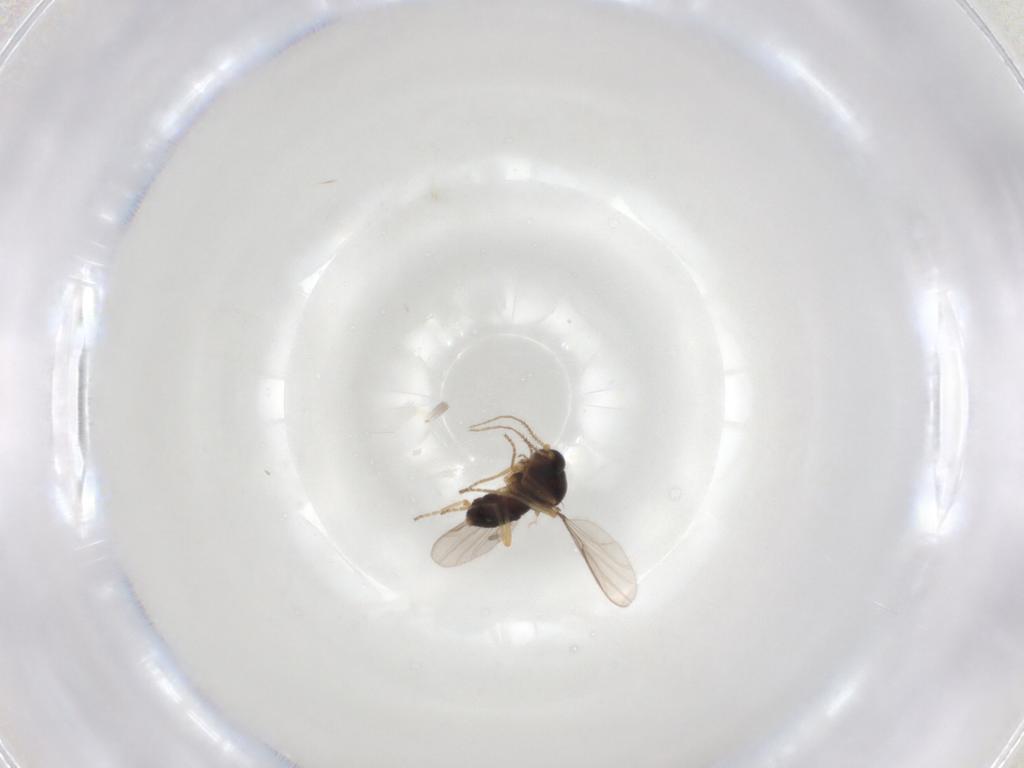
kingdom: Animalia
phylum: Arthropoda
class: Insecta
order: Diptera
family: Ceratopogonidae
